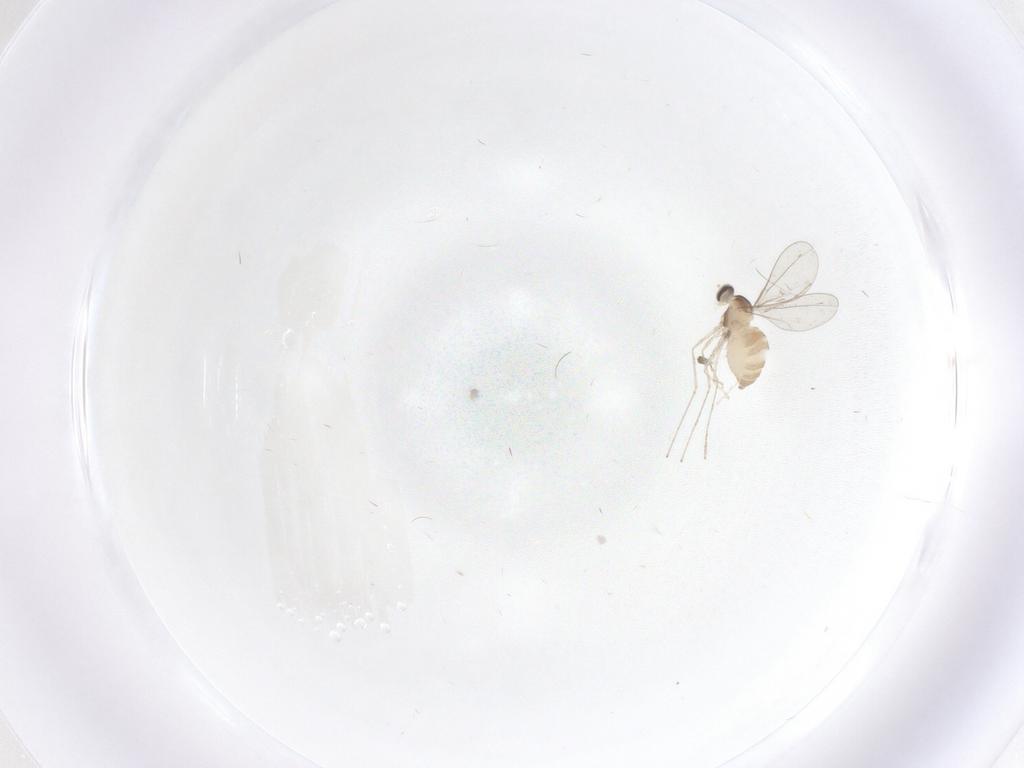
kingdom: Animalia
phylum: Arthropoda
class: Insecta
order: Diptera
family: Cecidomyiidae
